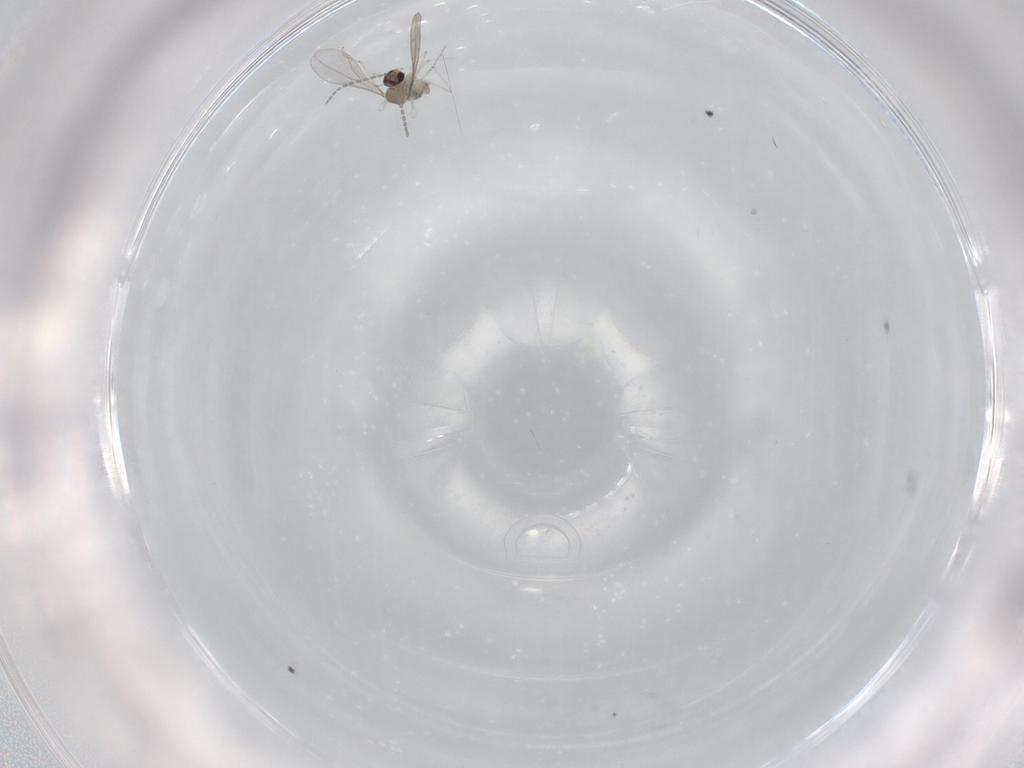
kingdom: Animalia
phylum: Arthropoda
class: Insecta
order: Diptera
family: Cecidomyiidae
